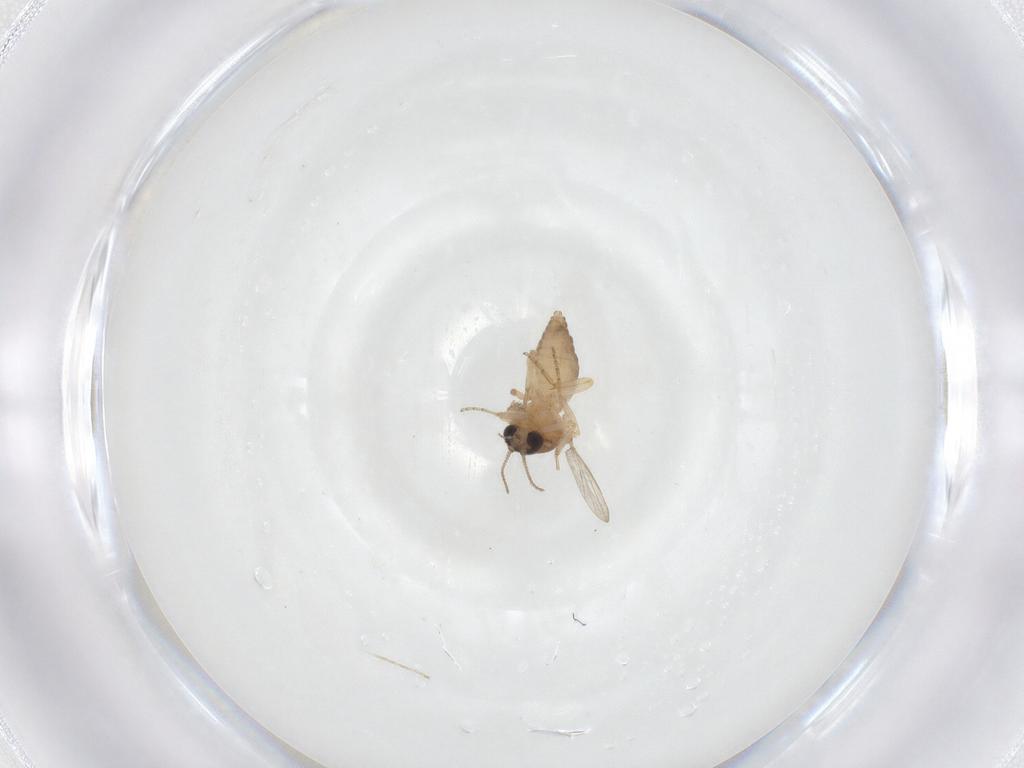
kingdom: Animalia
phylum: Arthropoda
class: Insecta
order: Diptera
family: Ceratopogonidae
